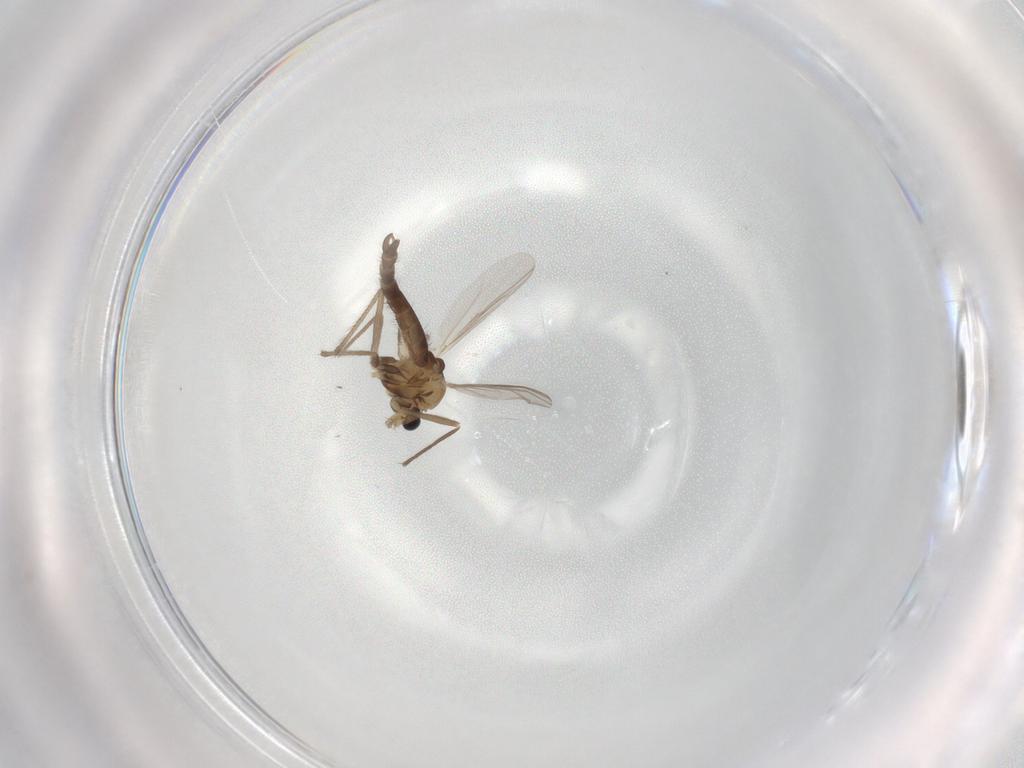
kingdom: Animalia
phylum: Arthropoda
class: Insecta
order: Diptera
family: Chironomidae
